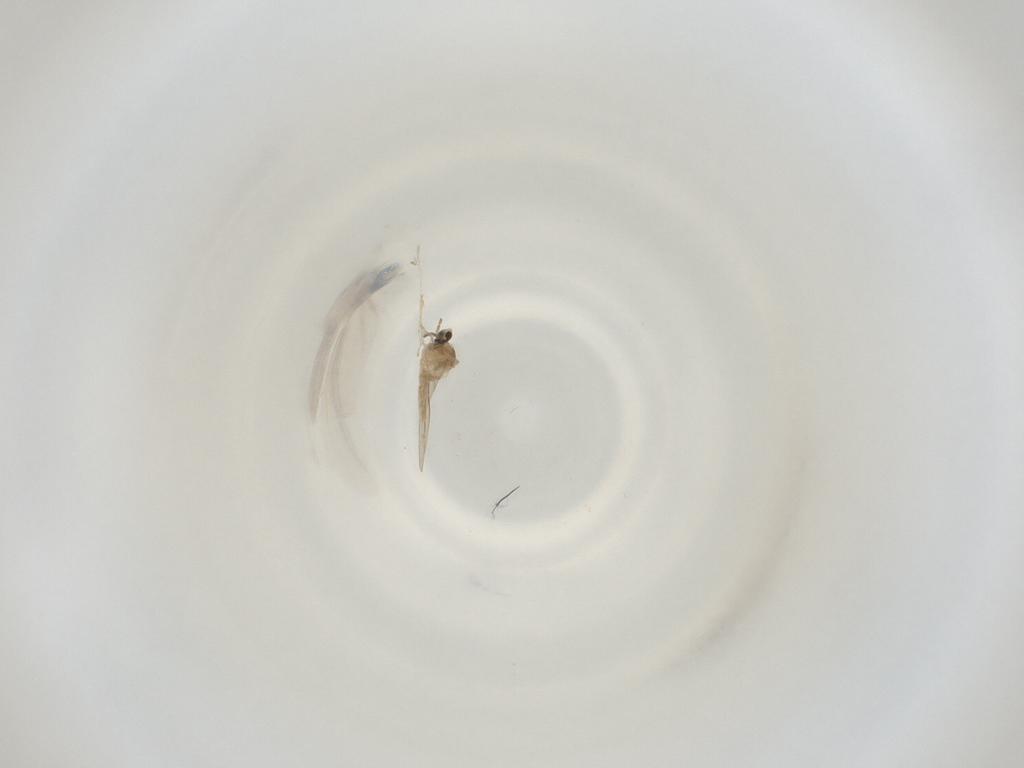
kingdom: Animalia
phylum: Arthropoda
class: Insecta
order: Diptera
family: Cecidomyiidae
